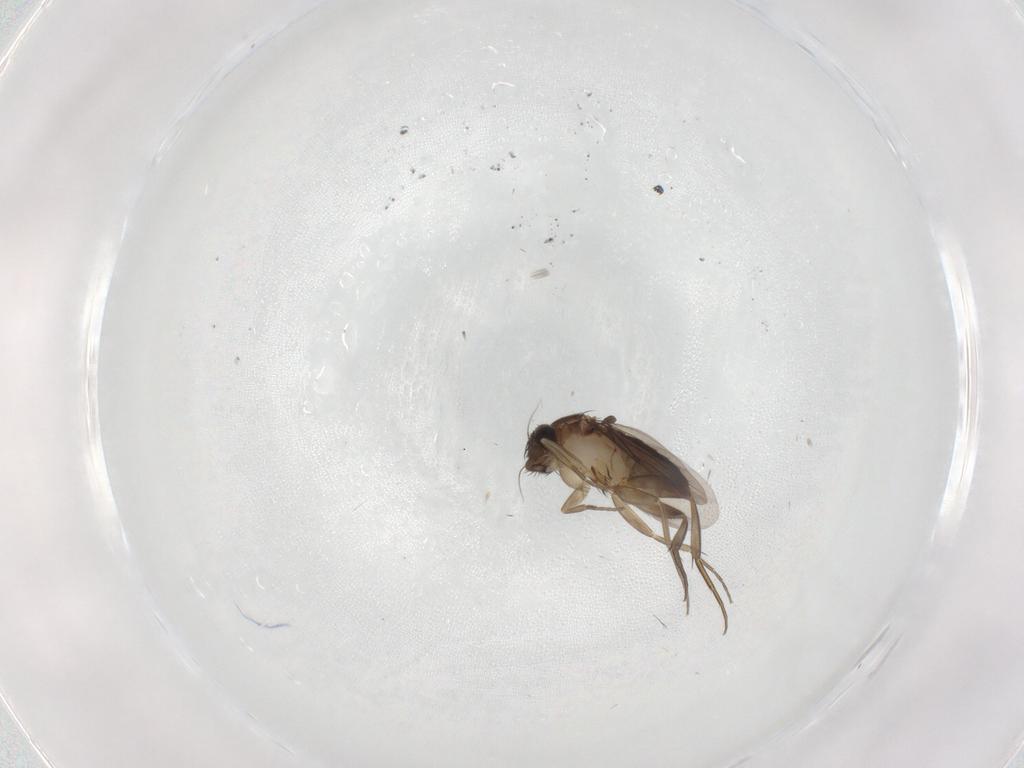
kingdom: Animalia
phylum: Arthropoda
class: Insecta
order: Diptera
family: Phoridae
